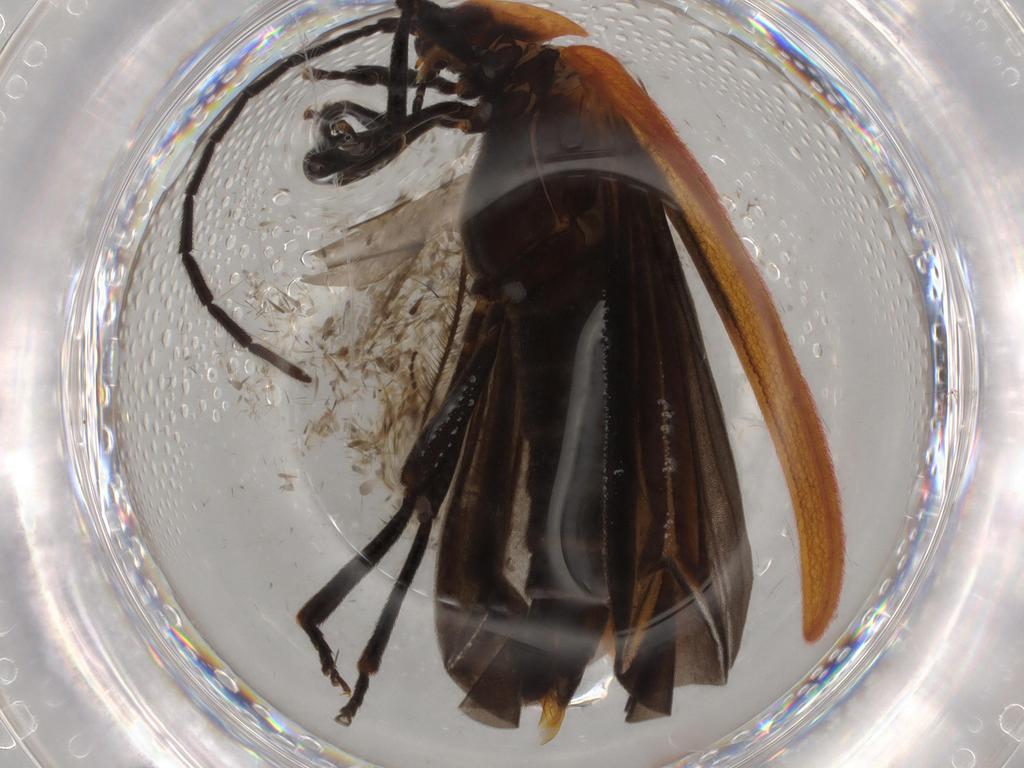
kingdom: Animalia
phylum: Arthropoda
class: Insecta
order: Coleoptera
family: Lycidae
